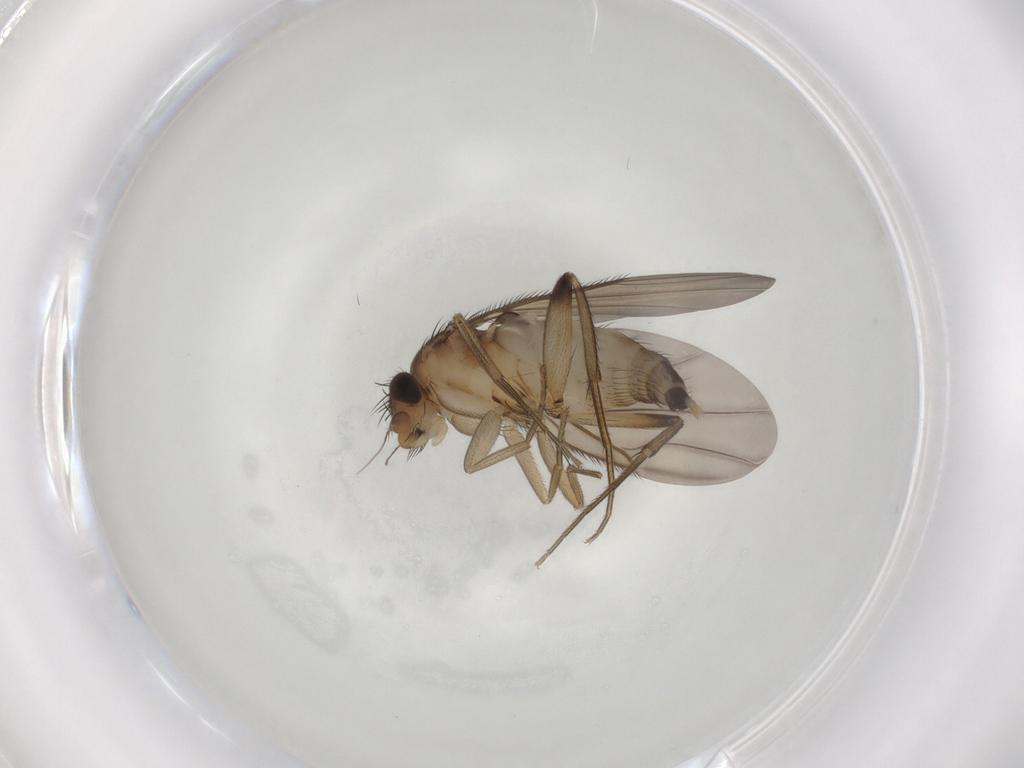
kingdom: Animalia
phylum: Arthropoda
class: Insecta
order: Diptera
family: Phoridae
